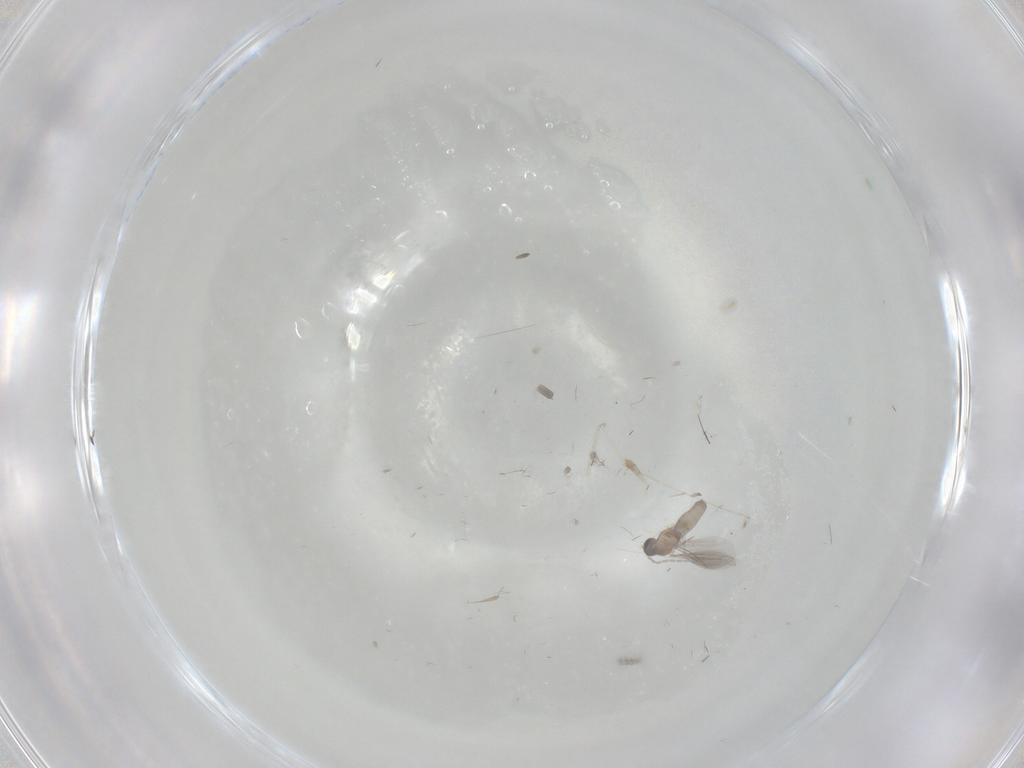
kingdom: Animalia
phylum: Arthropoda
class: Insecta
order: Diptera
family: Cecidomyiidae
